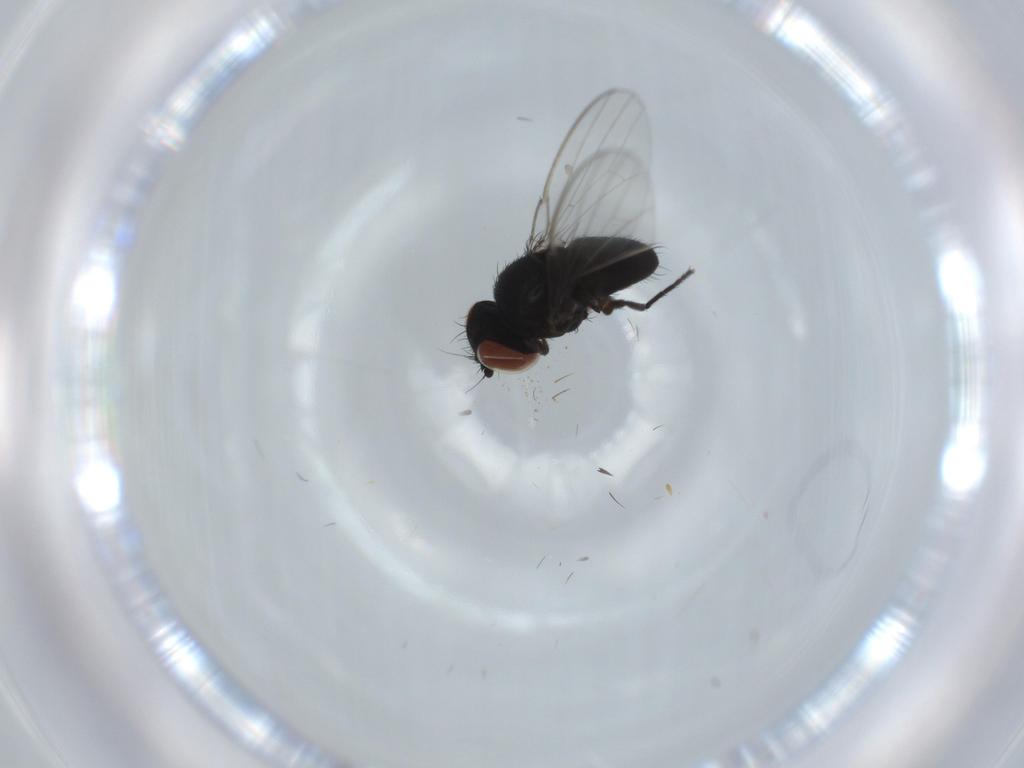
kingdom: Animalia
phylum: Arthropoda
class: Insecta
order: Diptera
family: Milichiidae
